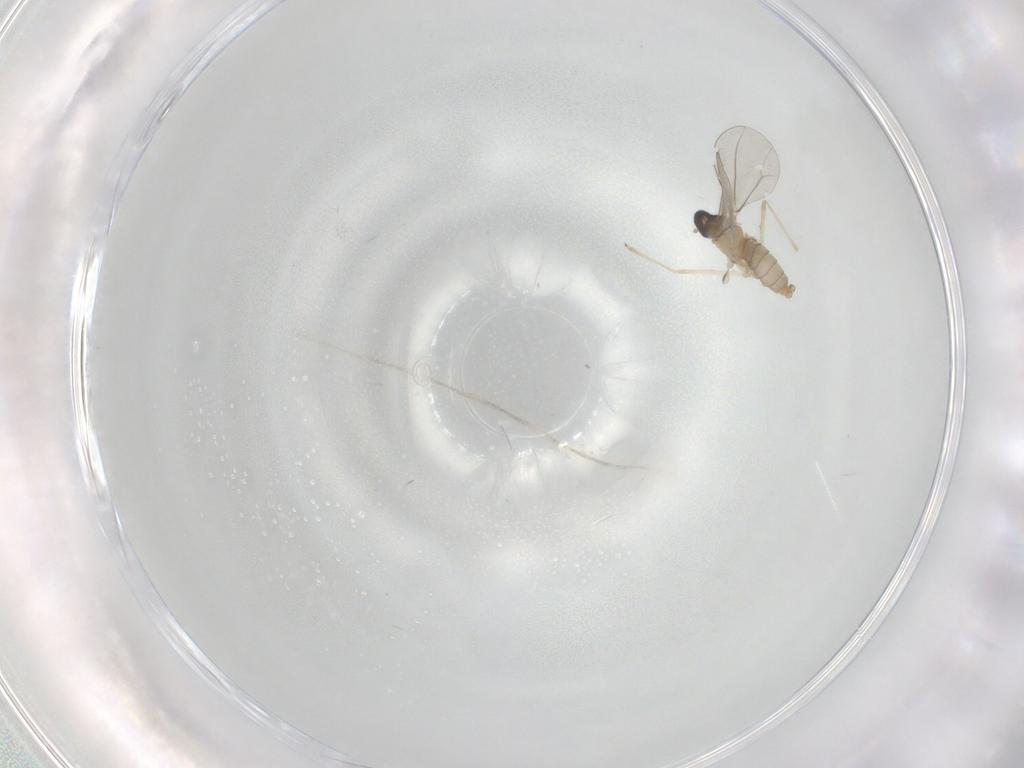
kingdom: Animalia
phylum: Arthropoda
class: Insecta
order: Diptera
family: Cecidomyiidae
